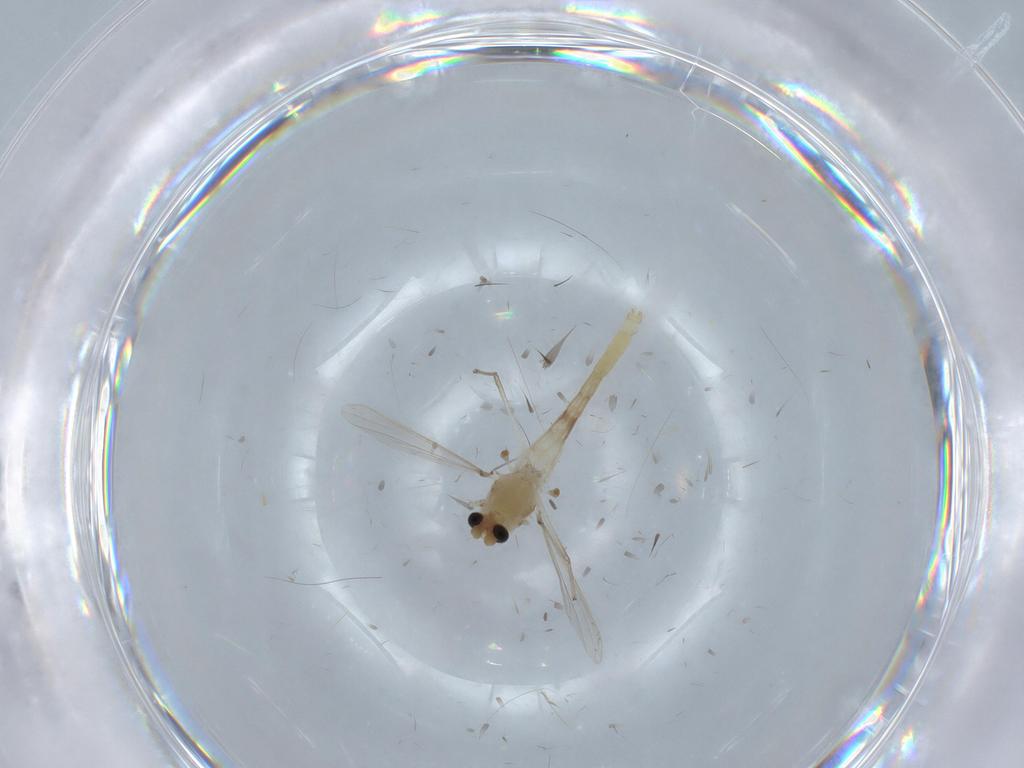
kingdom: Animalia
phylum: Arthropoda
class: Insecta
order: Diptera
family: Chironomidae
